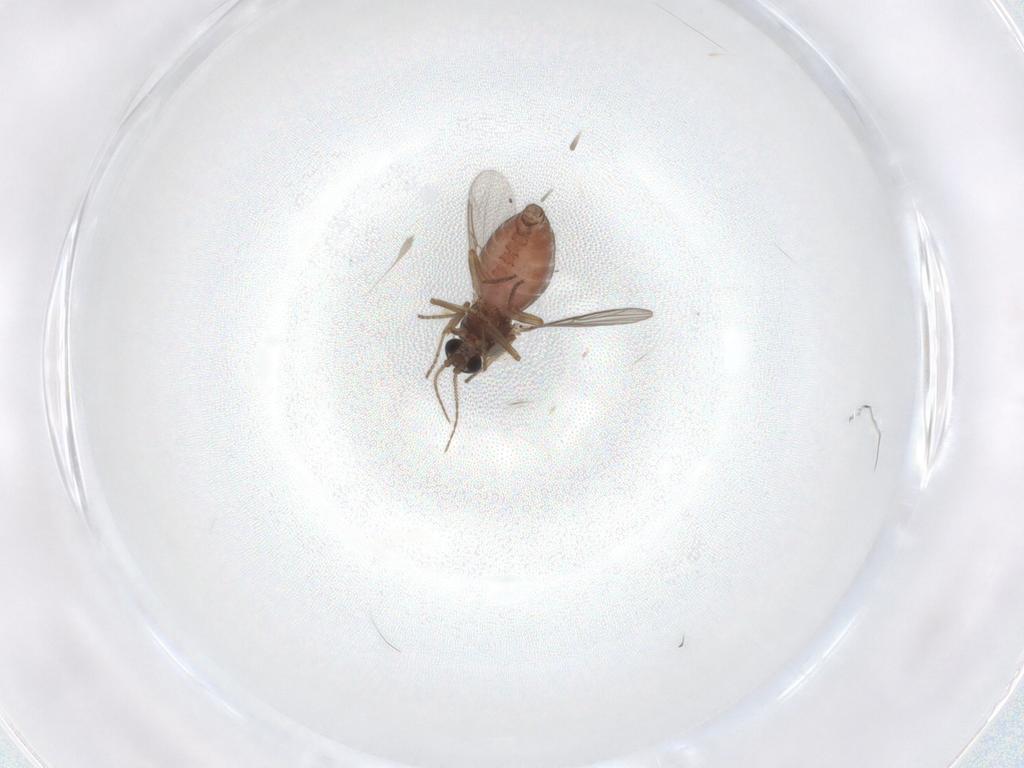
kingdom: Animalia
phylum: Arthropoda
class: Insecta
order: Diptera
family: Ceratopogonidae
